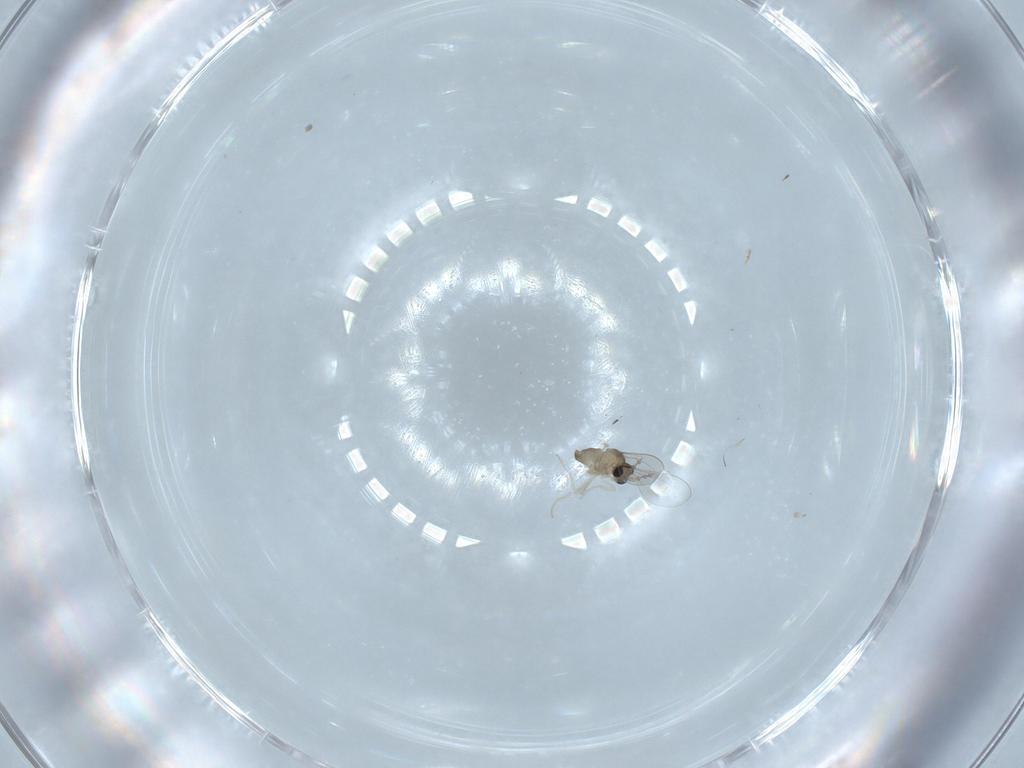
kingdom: Animalia
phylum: Arthropoda
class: Insecta
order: Diptera
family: Cecidomyiidae
